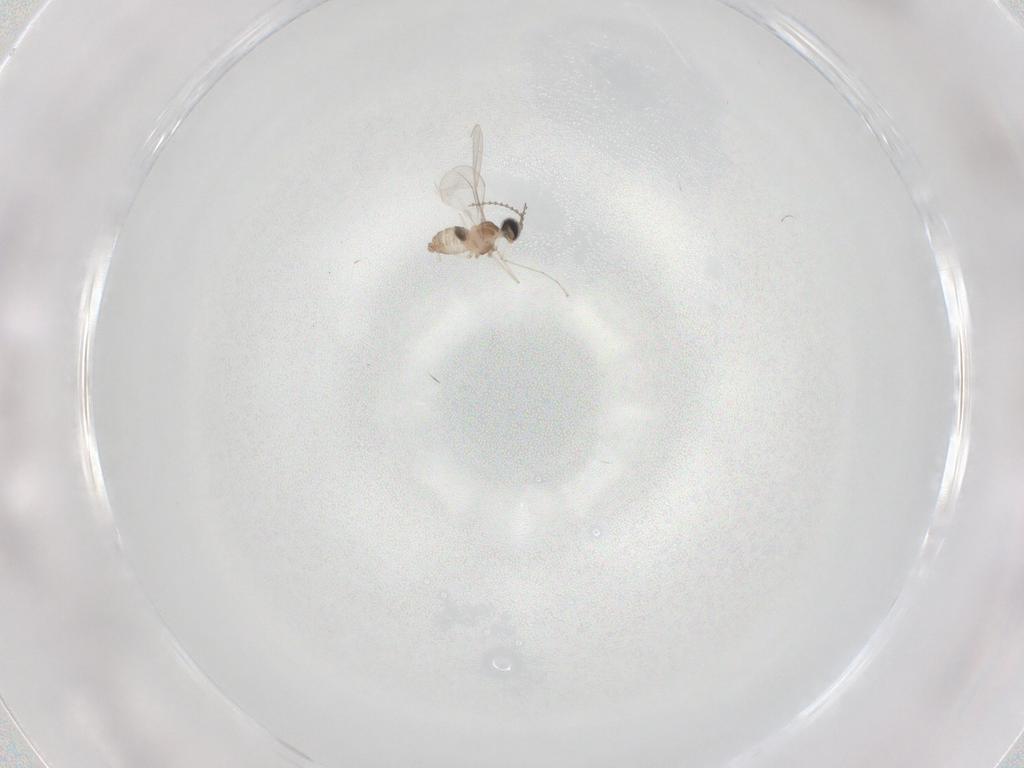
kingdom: Animalia
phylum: Arthropoda
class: Insecta
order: Diptera
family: Cecidomyiidae
